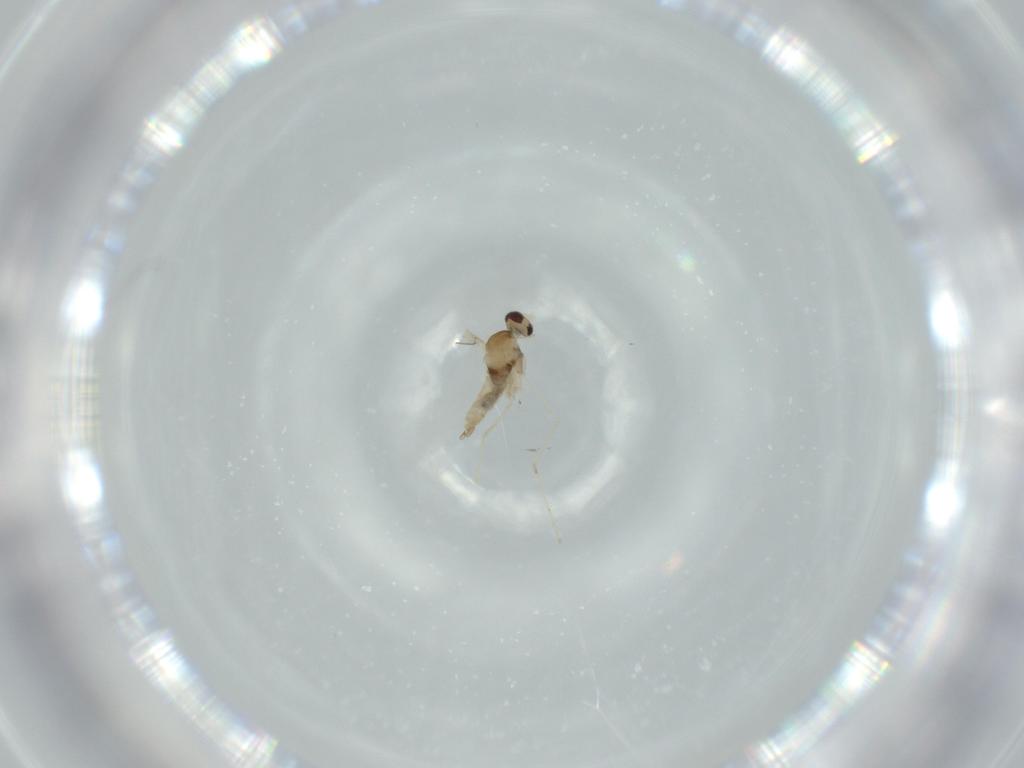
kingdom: Animalia
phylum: Arthropoda
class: Insecta
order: Diptera
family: Cecidomyiidae
